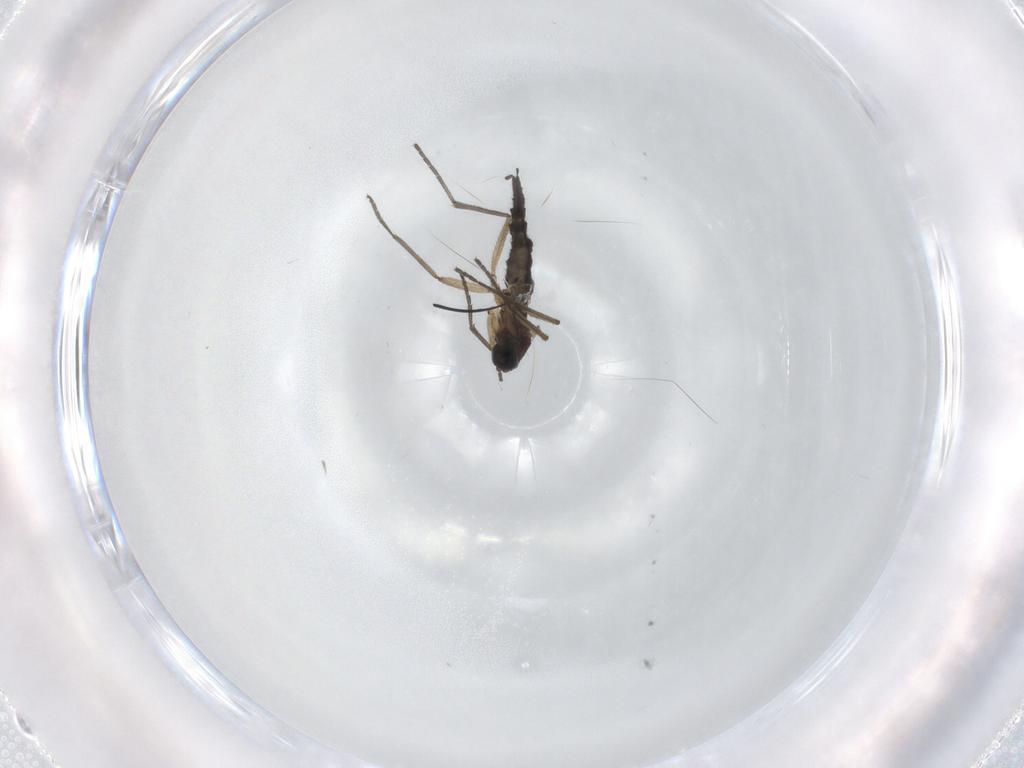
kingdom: Animalia
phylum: Arthropoda
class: Insecta
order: Diptera
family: Sciaridae
